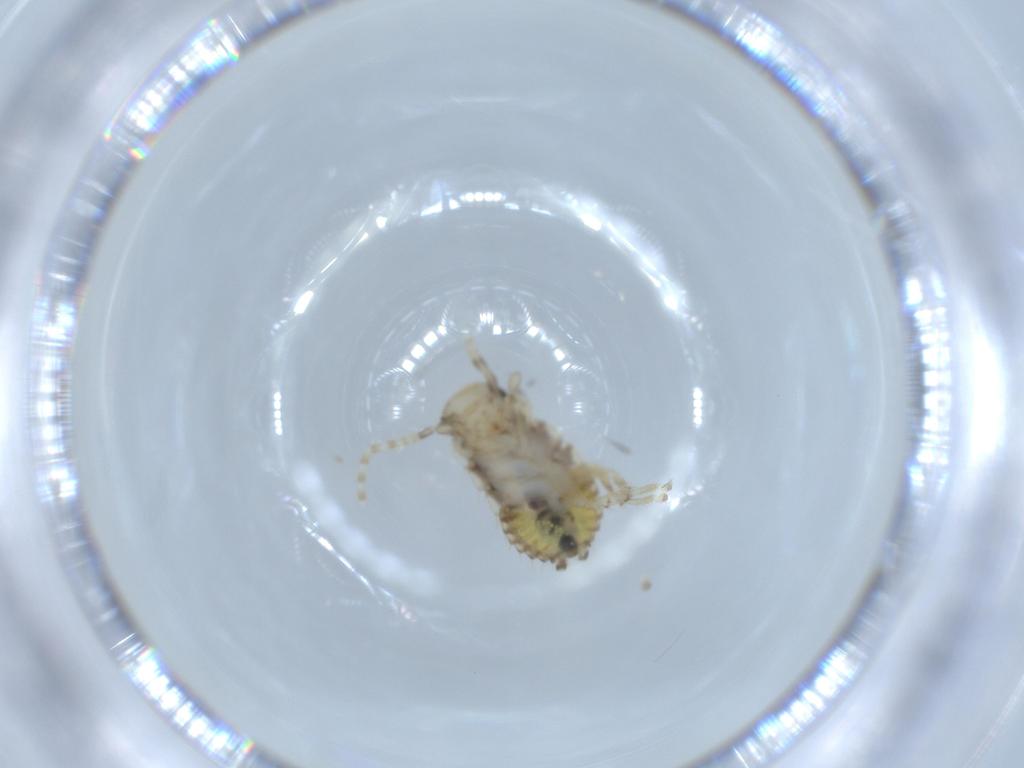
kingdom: Animalia
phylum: Arthropoda
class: Insecta
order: Blattodea
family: Ectobiidae
